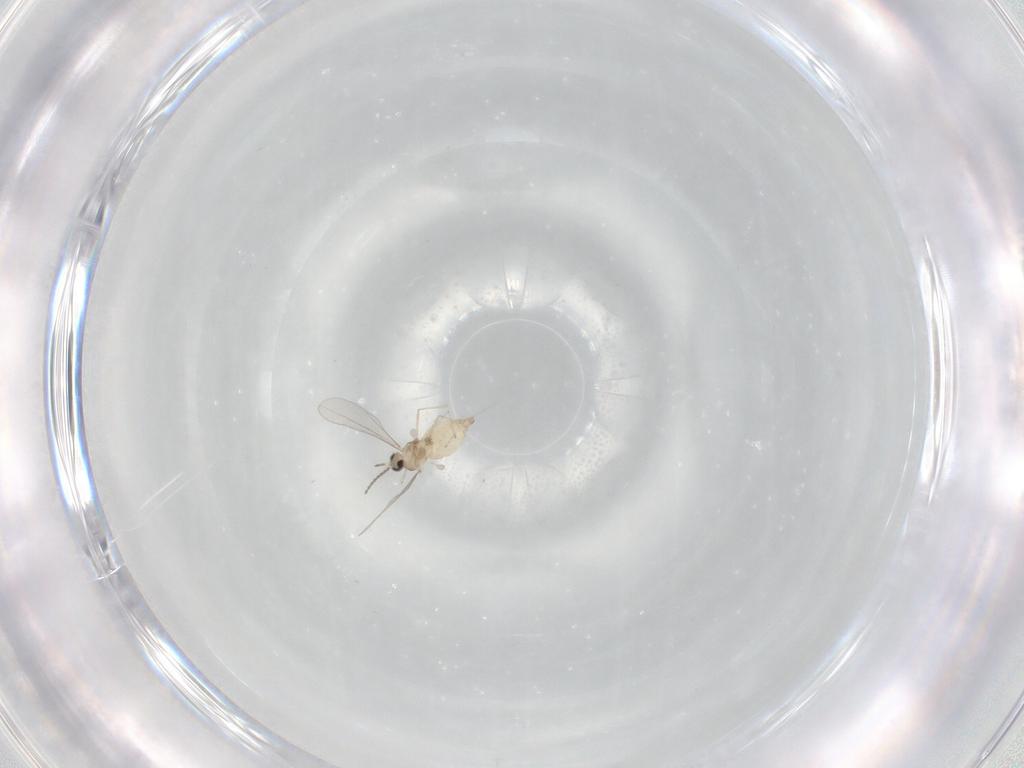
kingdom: Animalia
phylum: Arthropoda
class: Insecta
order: Diptera
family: Cecidomyiidae
